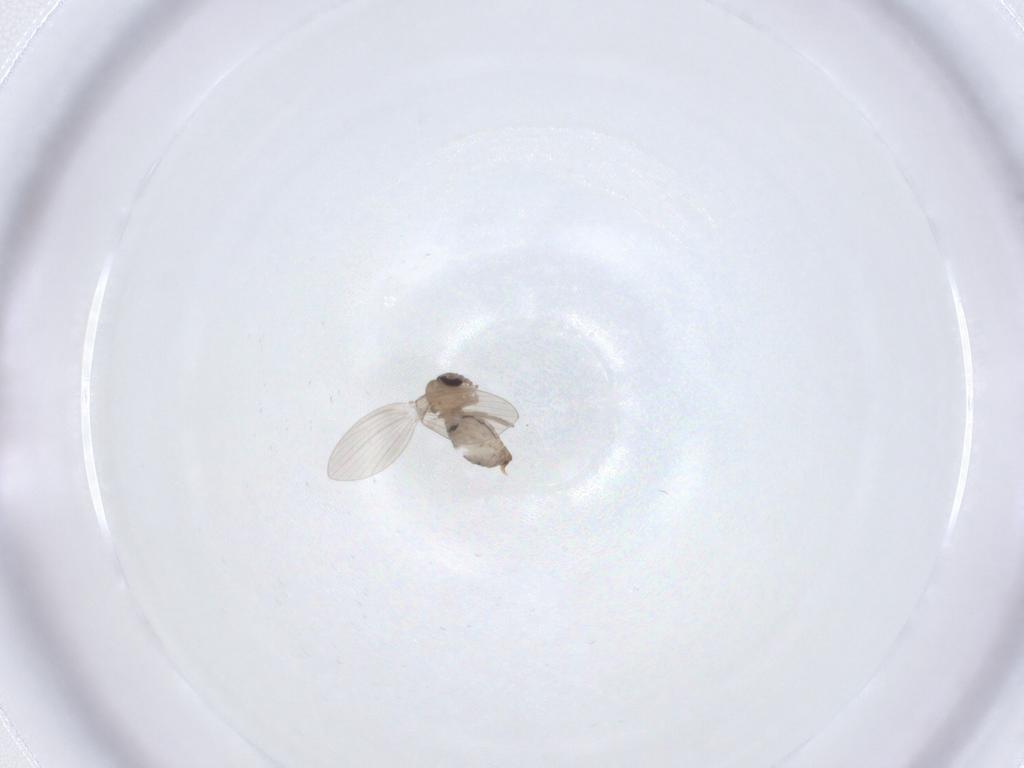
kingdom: Animalia
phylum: Arthropoda
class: Insecta
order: Diptera
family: Psychodidae
